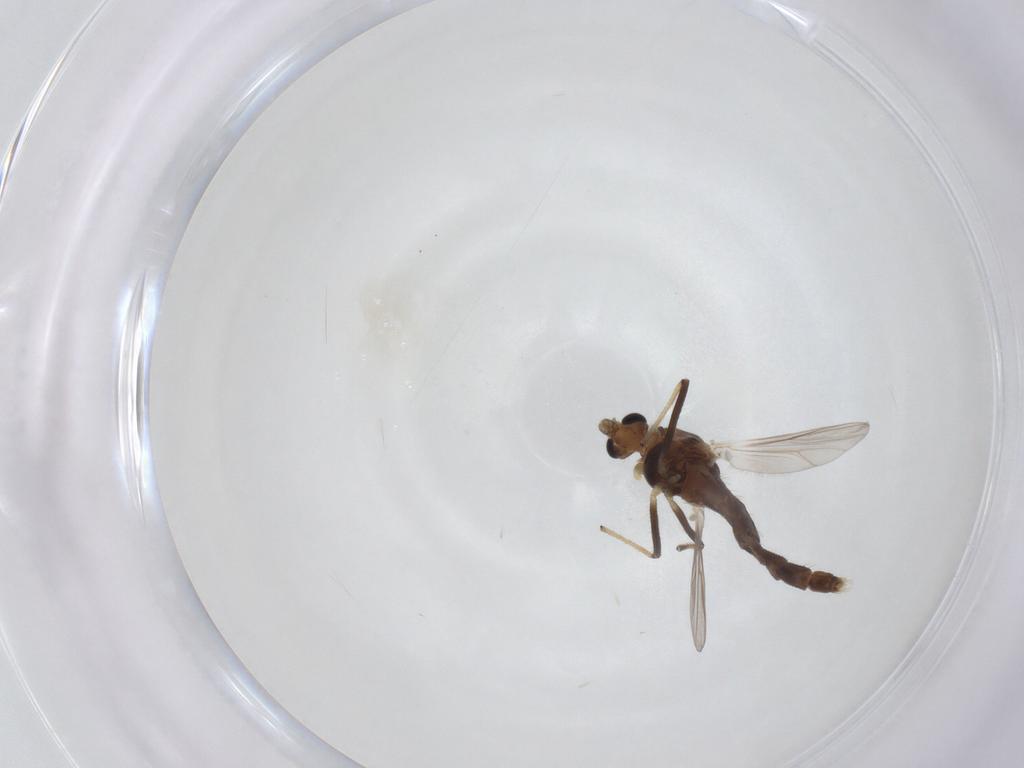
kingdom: Animalia
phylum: Arthropoda
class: Insecta
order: Diptera
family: Chironomidae
